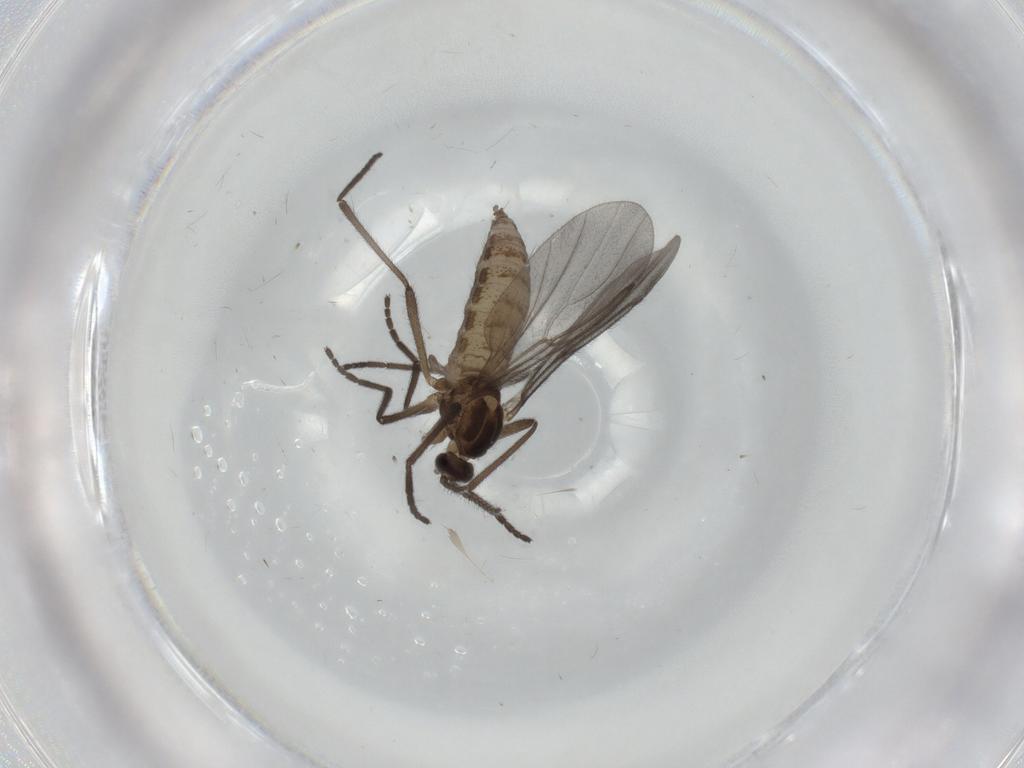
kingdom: Animalia
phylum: Arthropoda
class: Insecta
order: Diptera
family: Cecidomyiidae
